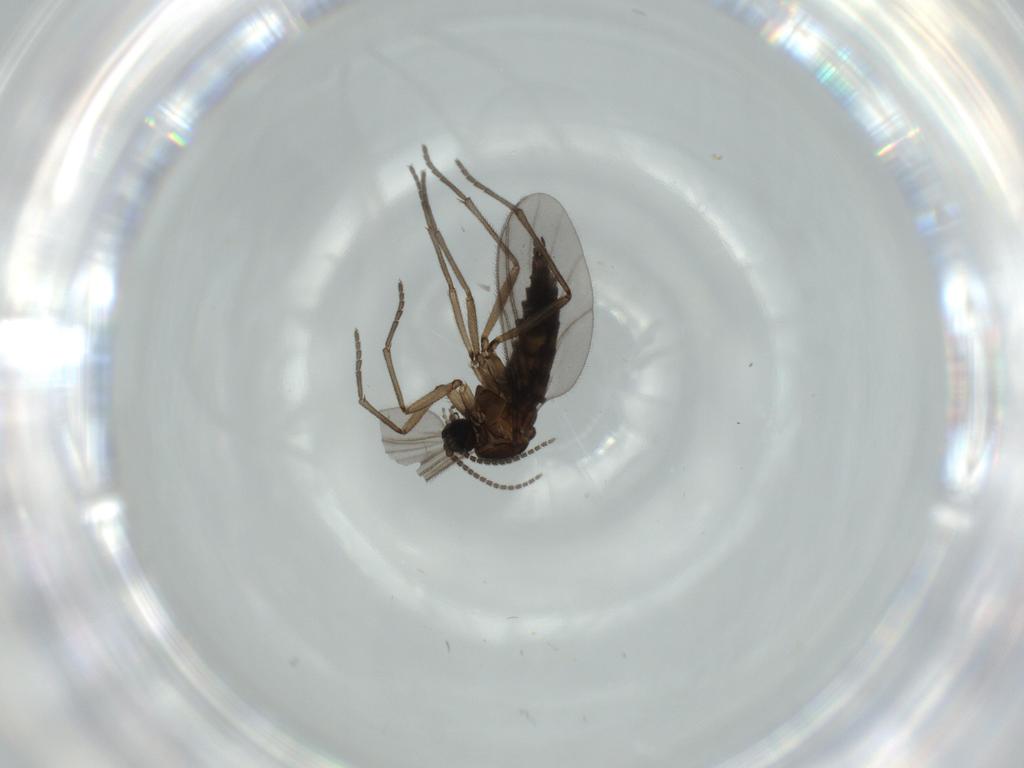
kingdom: Animalia
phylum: Arthropoda
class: Insecta
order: Diptera
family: Sciaridae
